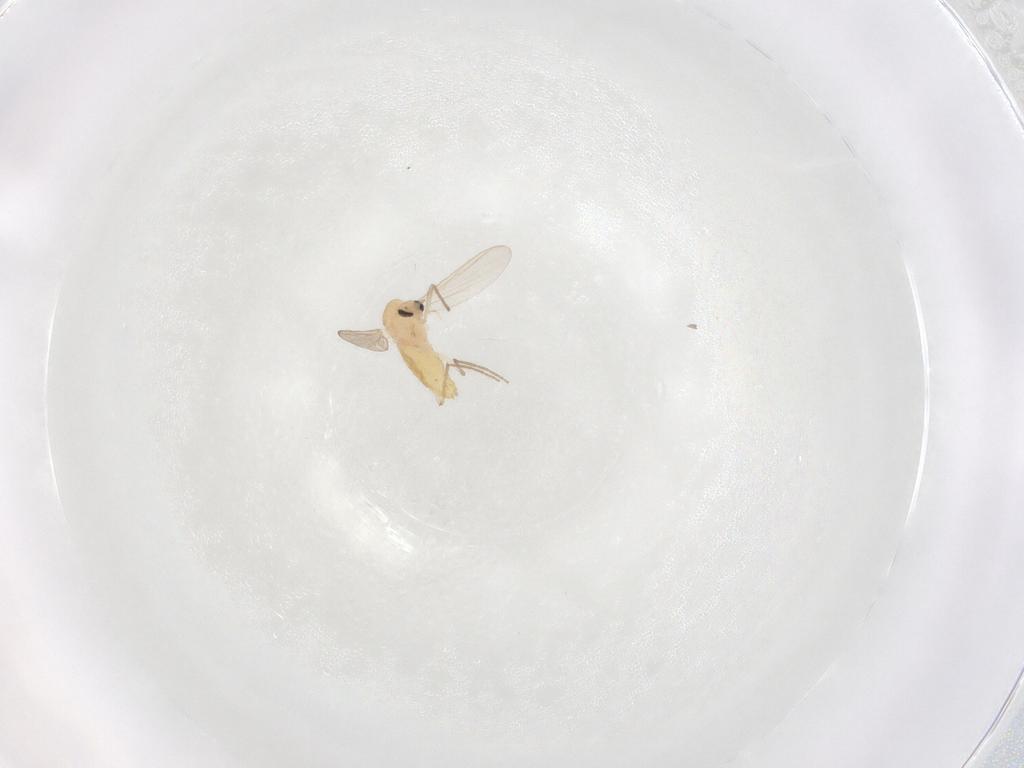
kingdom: Animalia
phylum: Arthropoda
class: Insecta
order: Diptera
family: Chironomidae
